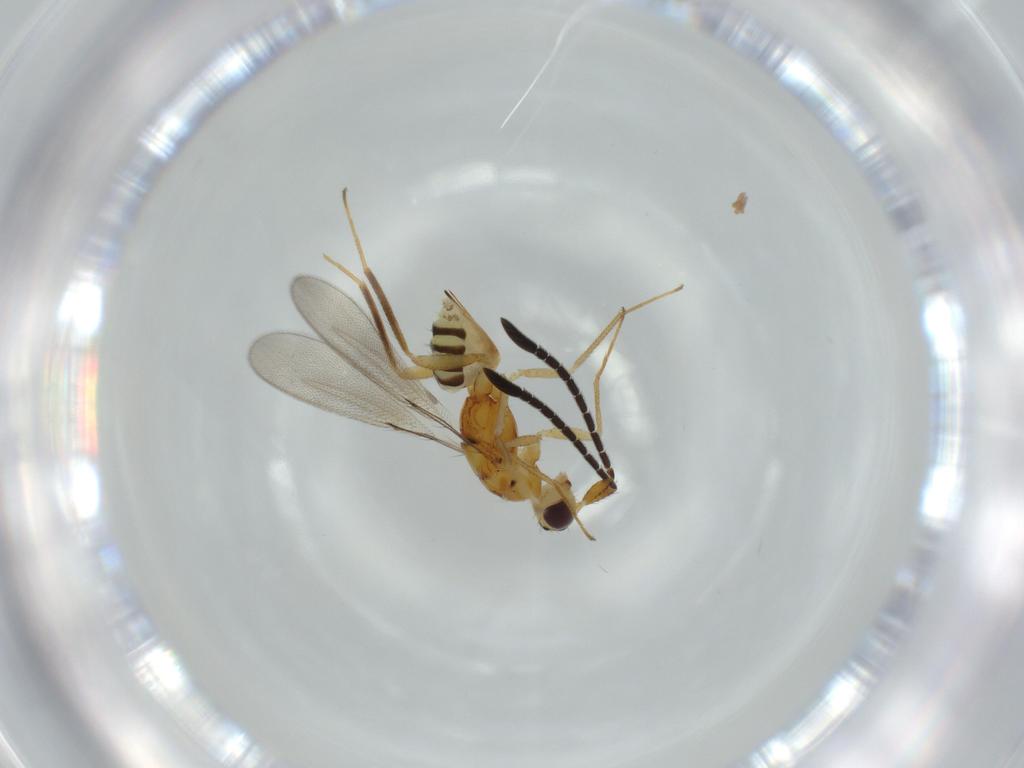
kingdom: Animalia
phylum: Arthropoda
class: Insecta
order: Hymenoptera
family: Mymaridae
